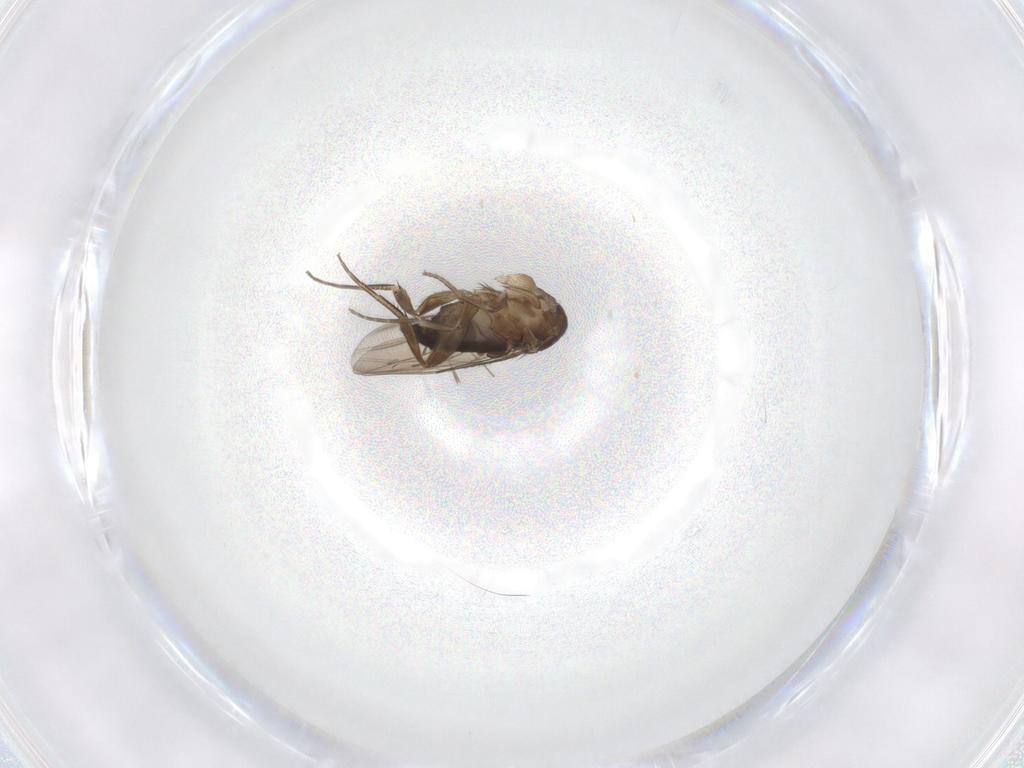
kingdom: Animalia
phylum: Arthropoda
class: Insecta
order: Diptera
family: Phoridae
